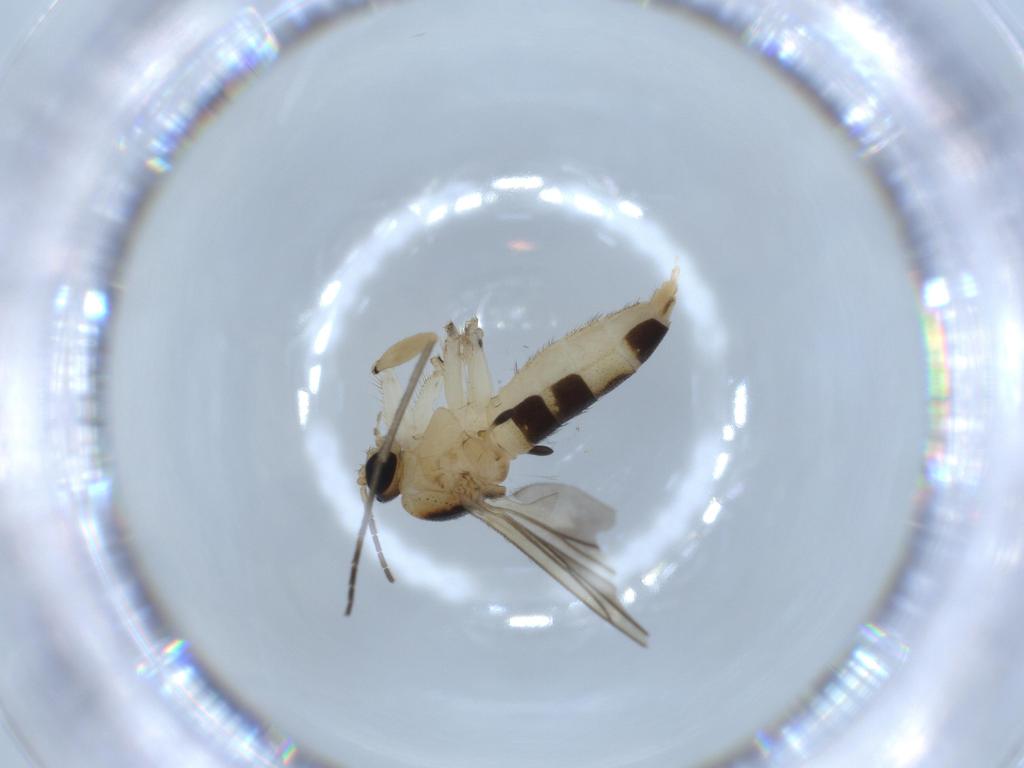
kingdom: Animalia
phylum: Arthropoda
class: Insecta
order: Diptera
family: Sciaridae
